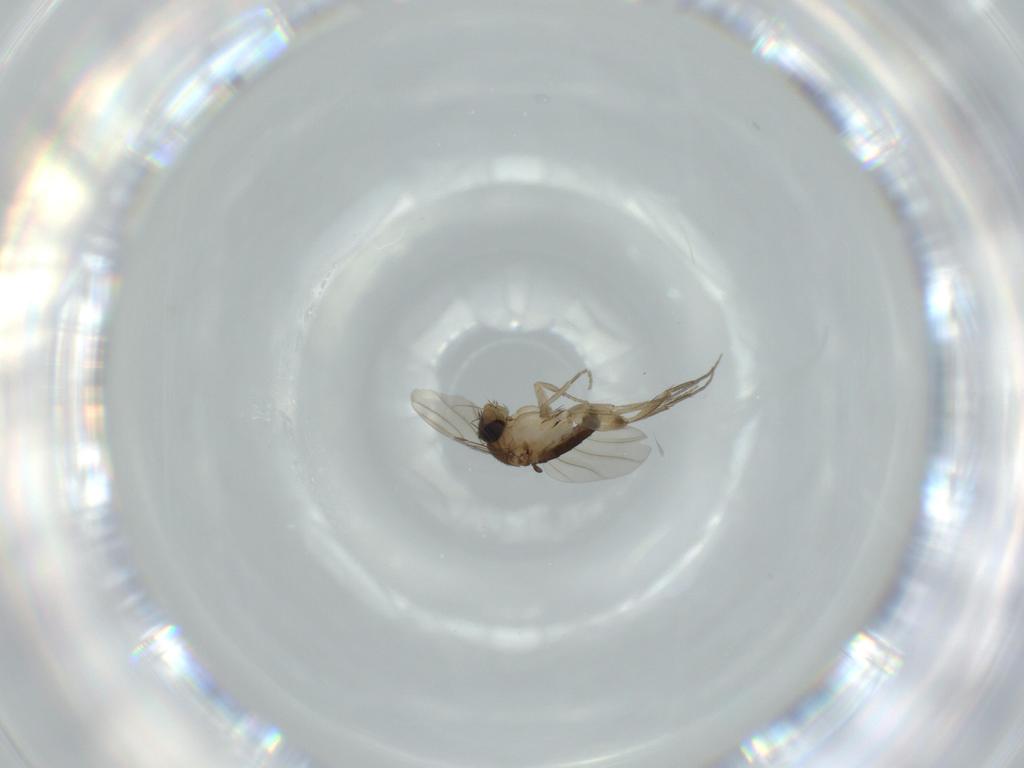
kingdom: Animalia
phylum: Arthropoda
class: Insecta
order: Diptera
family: Phoridae
